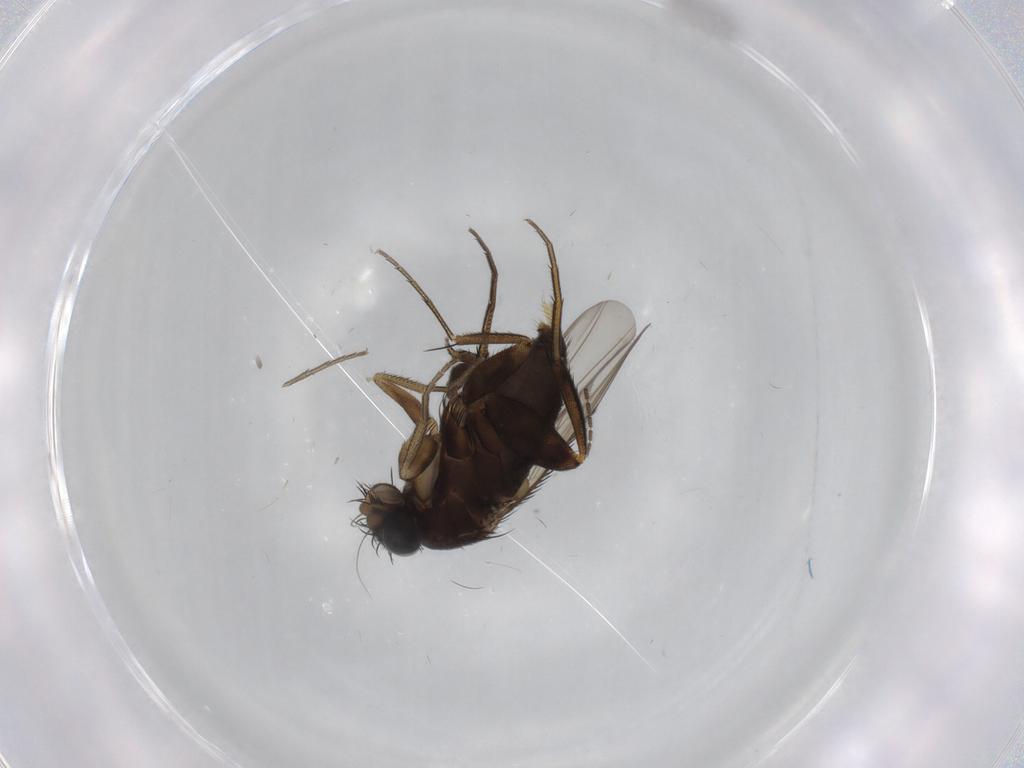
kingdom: Animalia
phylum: Arthropoda
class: Insecta
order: Diptera
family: Phoridae
